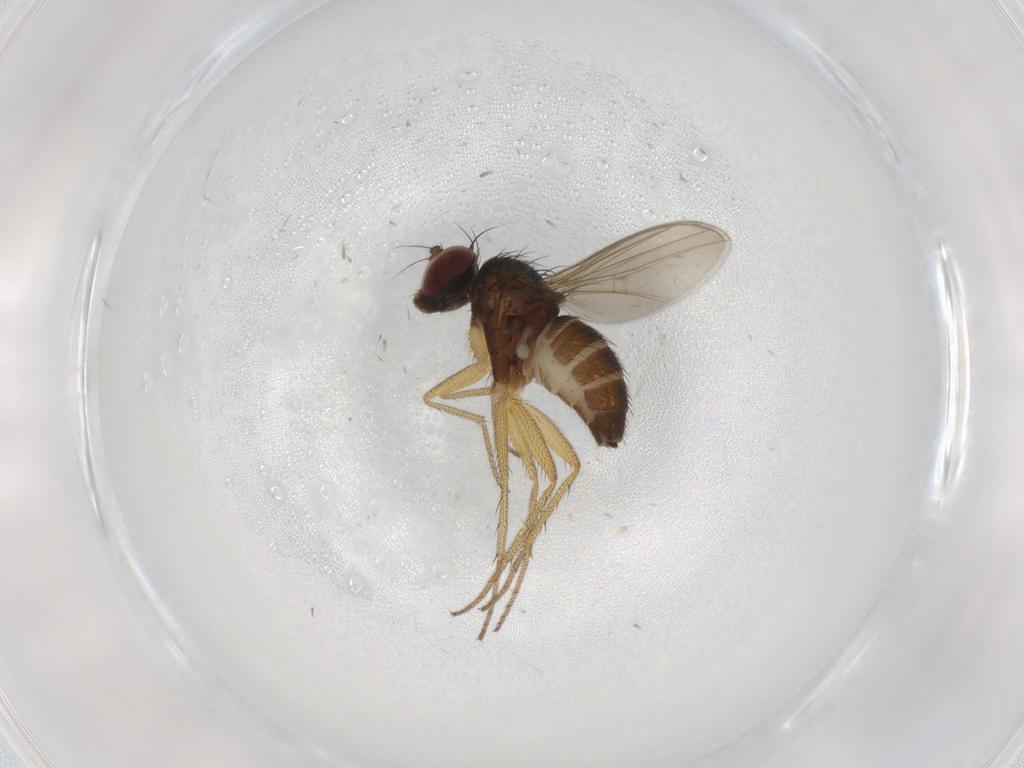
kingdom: Animalia
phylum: Arthropoda
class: Insecta
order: Diptera
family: Dolichopodidae
